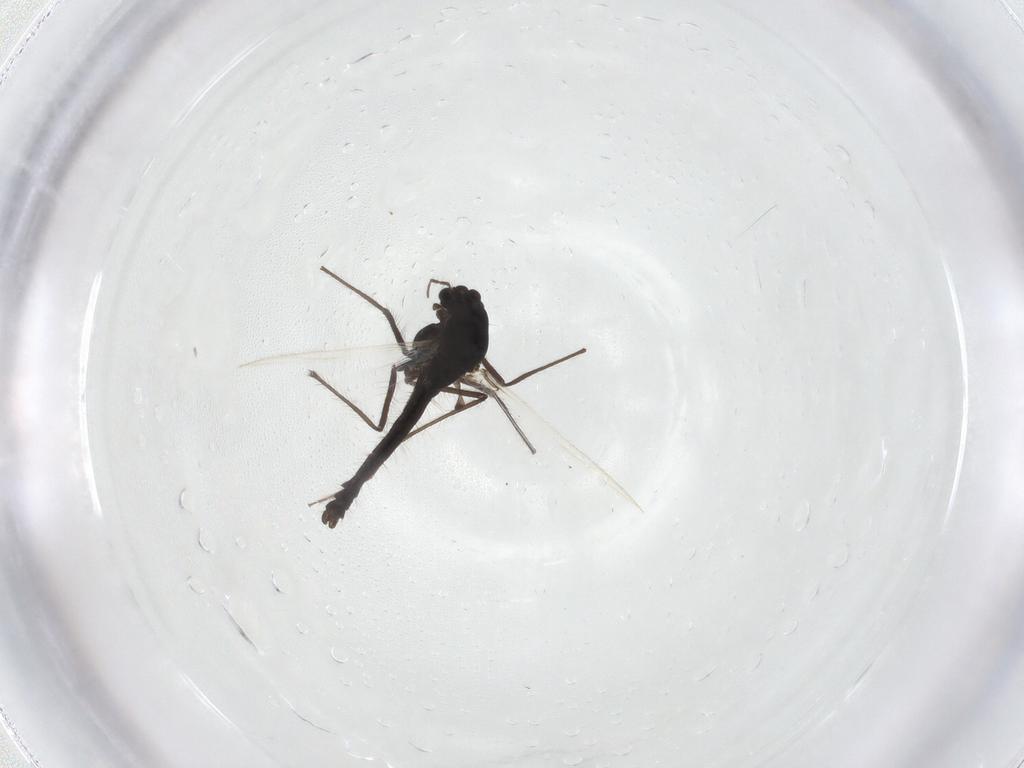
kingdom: Animalia
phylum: Arthropoda
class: Insecta
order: Diptera
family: Chironomidae
